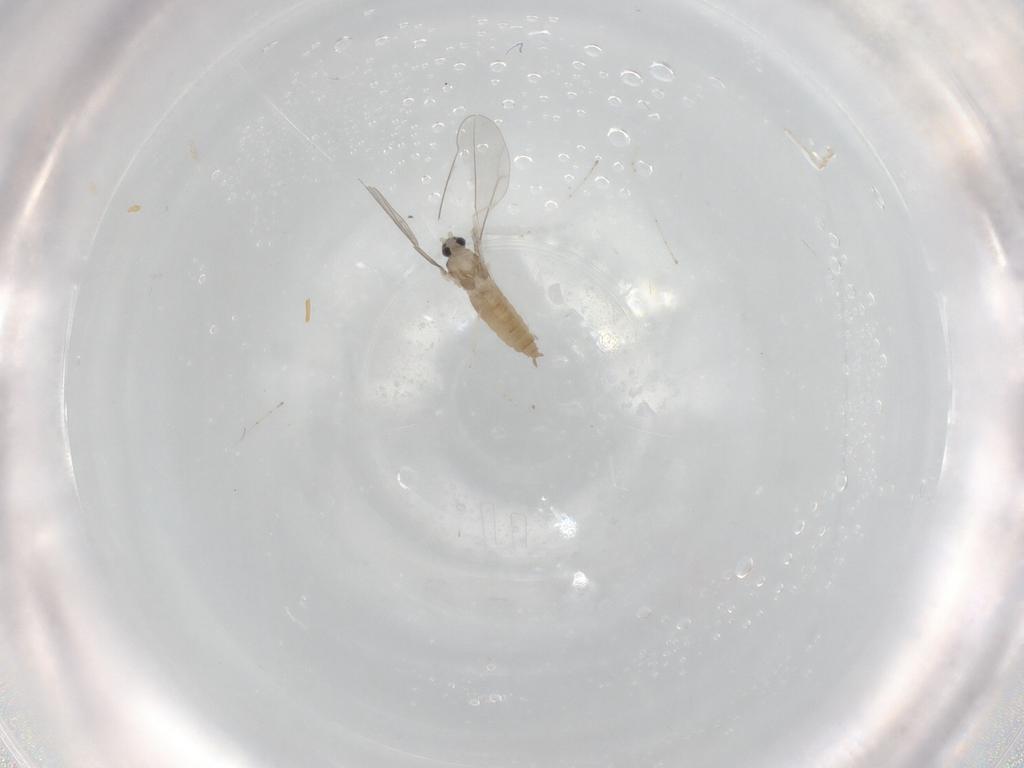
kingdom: Animalia
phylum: Arthropoda
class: Insecta
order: Diptera
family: Cecidomyiidae
